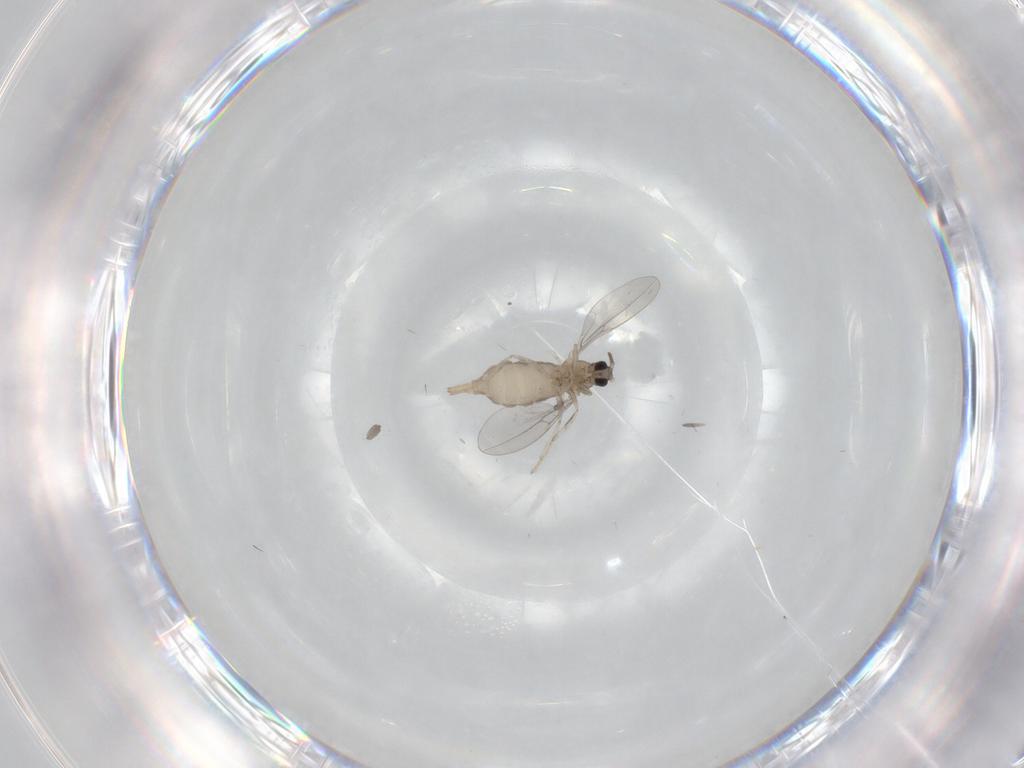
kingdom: Animalia
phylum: Arthropoda
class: Insecta
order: Diptera
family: Cecidomyiidae
